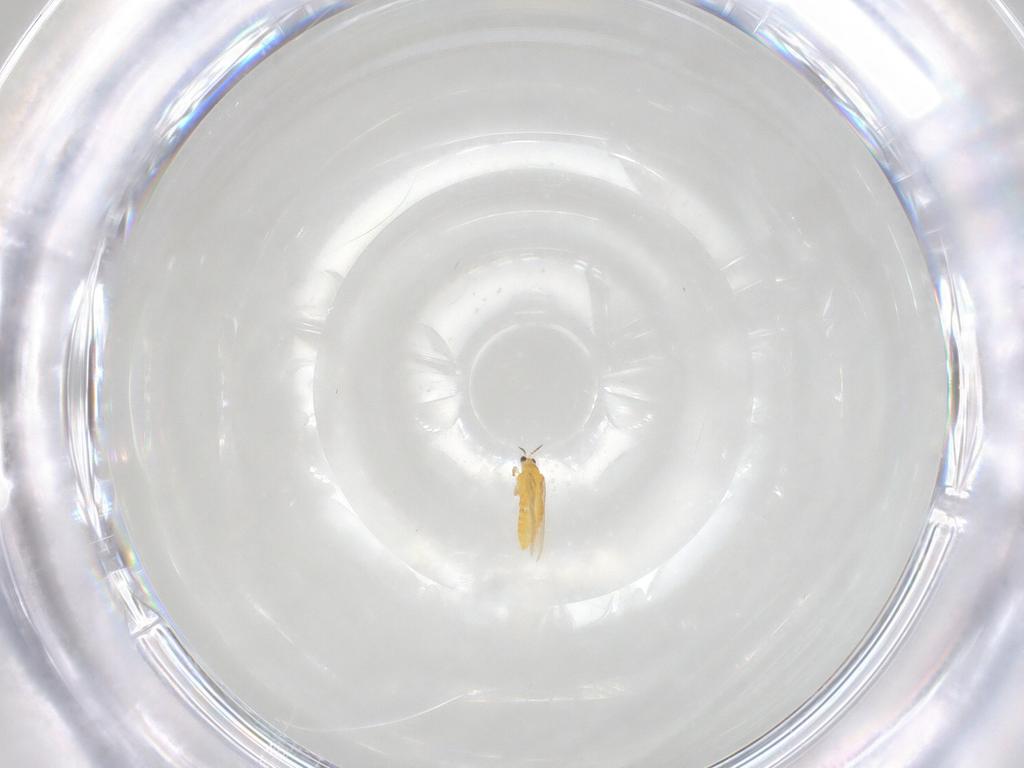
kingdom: Animalia
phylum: Arthropoda
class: Insecta
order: Thysanoptera
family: Thripidae
